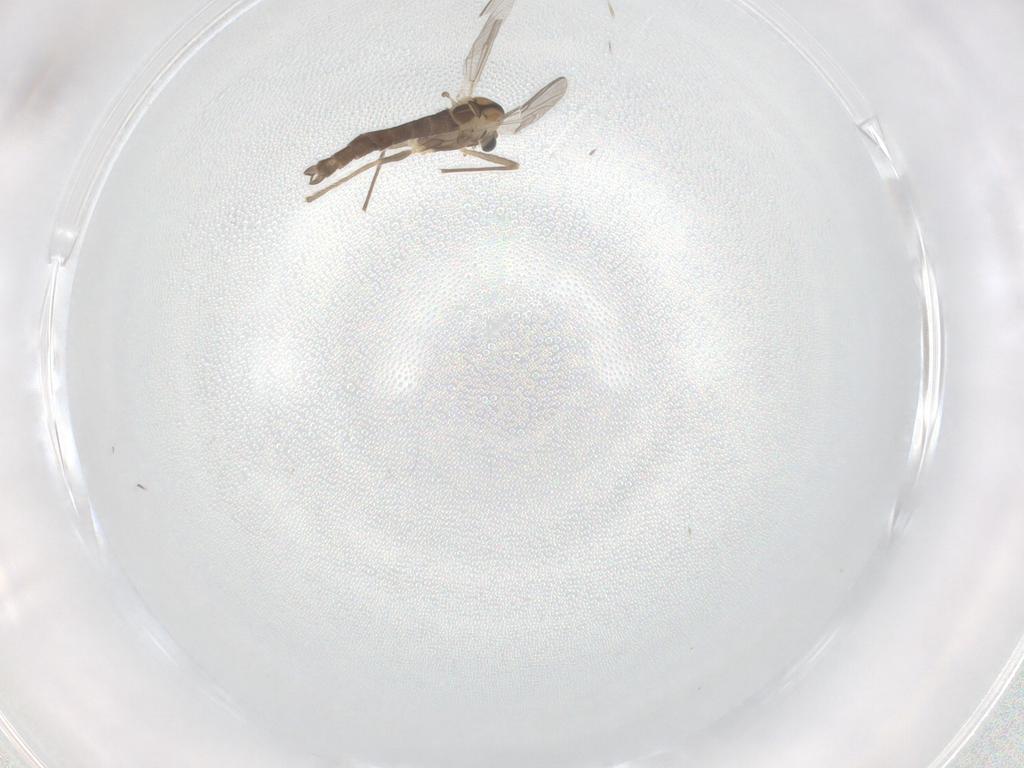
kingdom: Animalia
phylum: Arthropoda
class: Insecta
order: Diptera
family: Chironomidae
